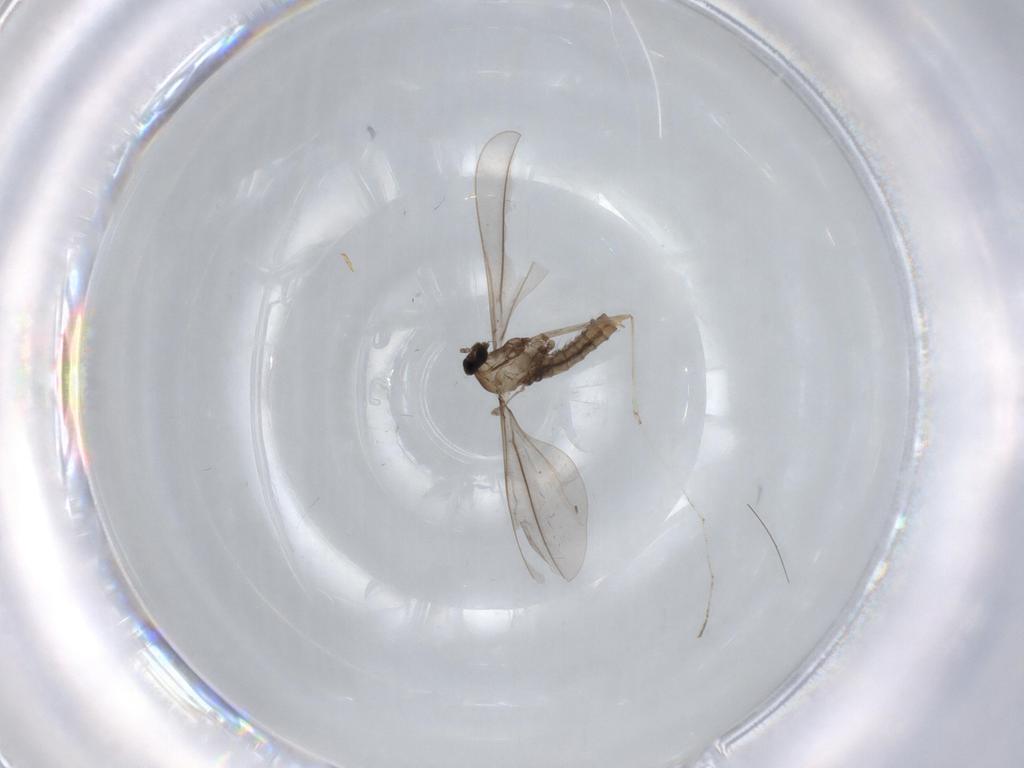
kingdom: Animalia
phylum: Arthropoda
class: Insecta
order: Diptera
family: Cecidomyiidae
